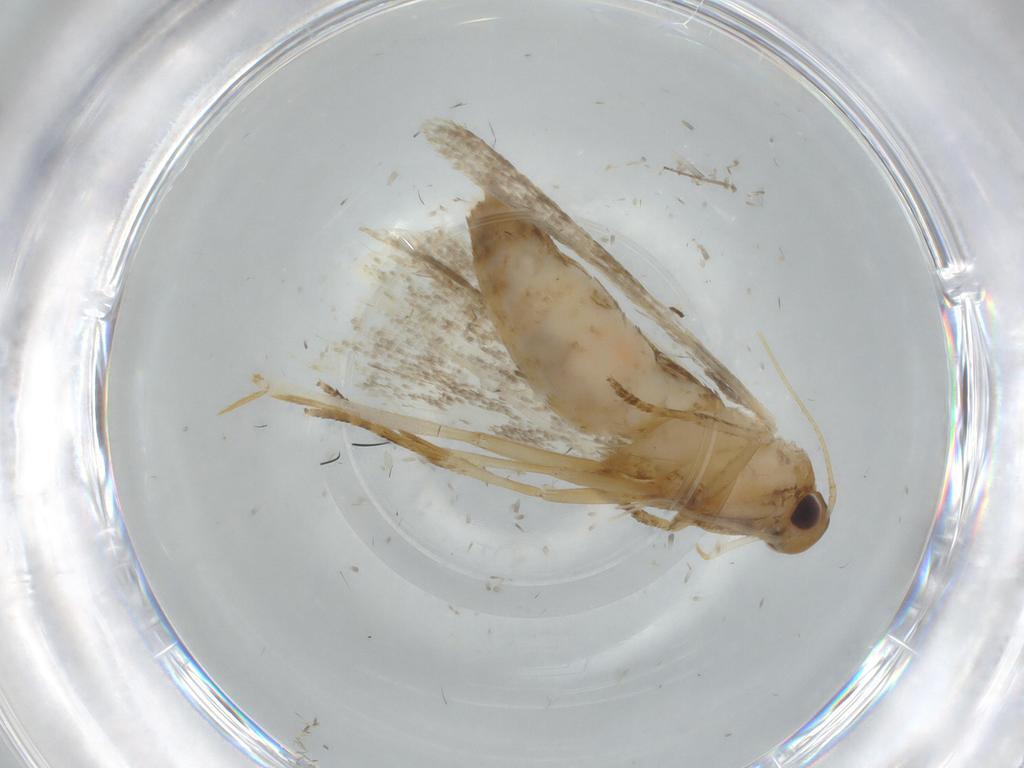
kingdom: Animalia
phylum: Arthropoda
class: Insecta
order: Lepidoptera
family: Gelechiidae
